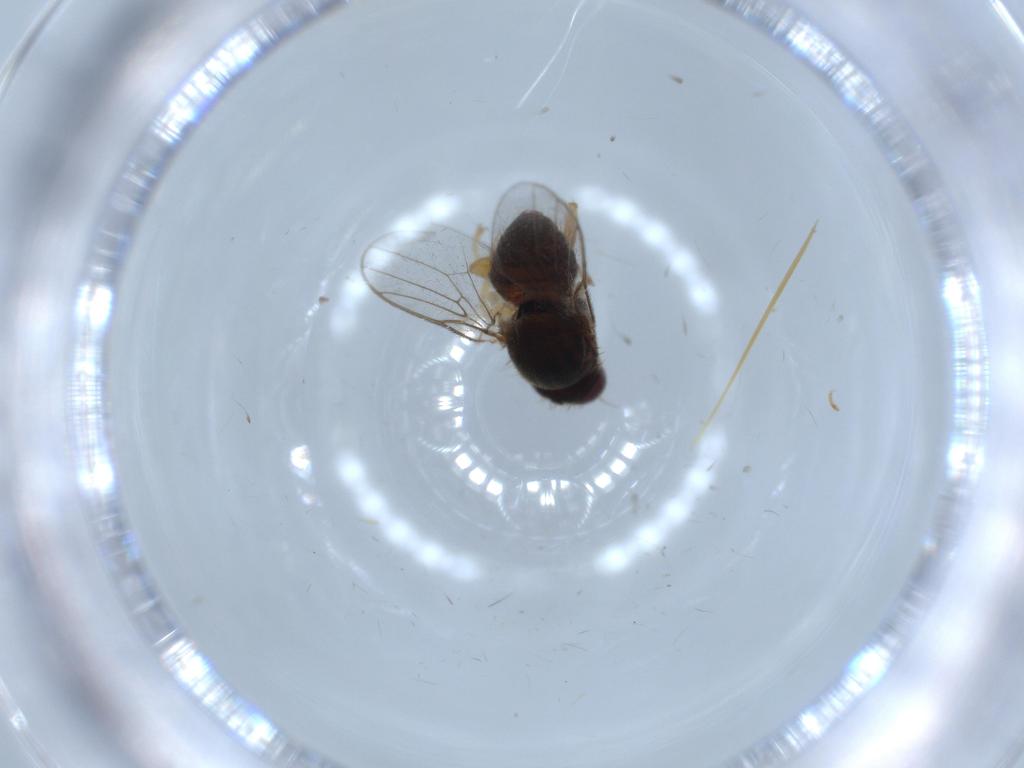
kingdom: Animalia
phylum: Arthropoda
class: Insecta
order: Diptera
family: Chloropidae
